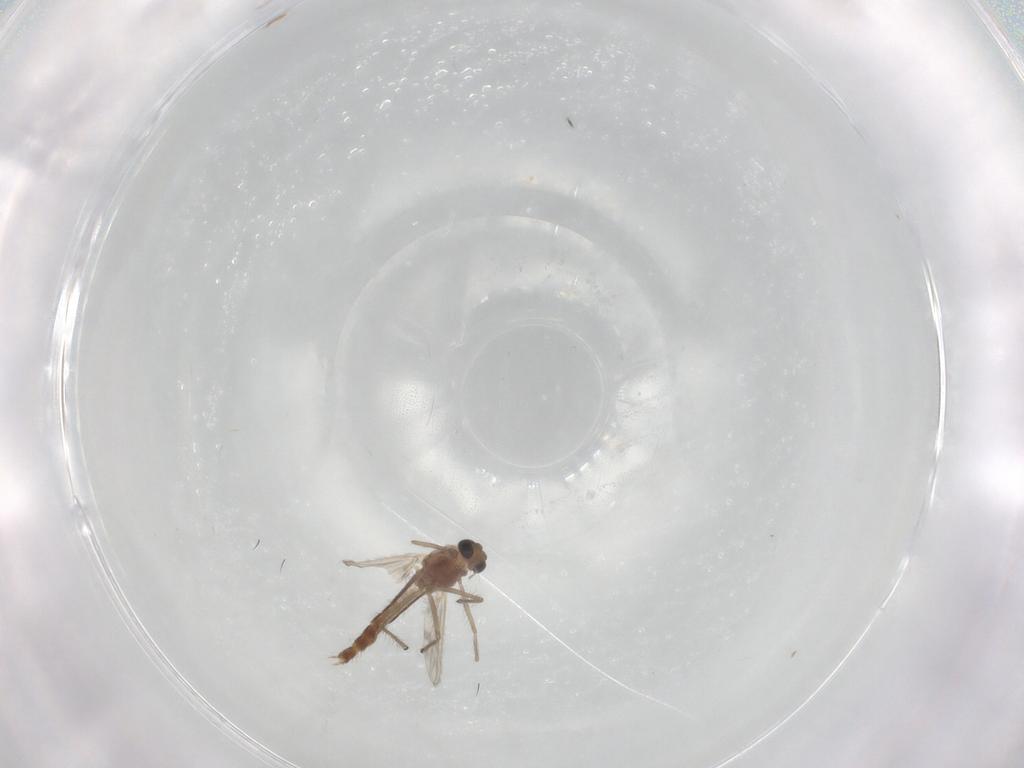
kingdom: Animalia
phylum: Arthropoda
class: Insecta
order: Diptera
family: Chironomidae
